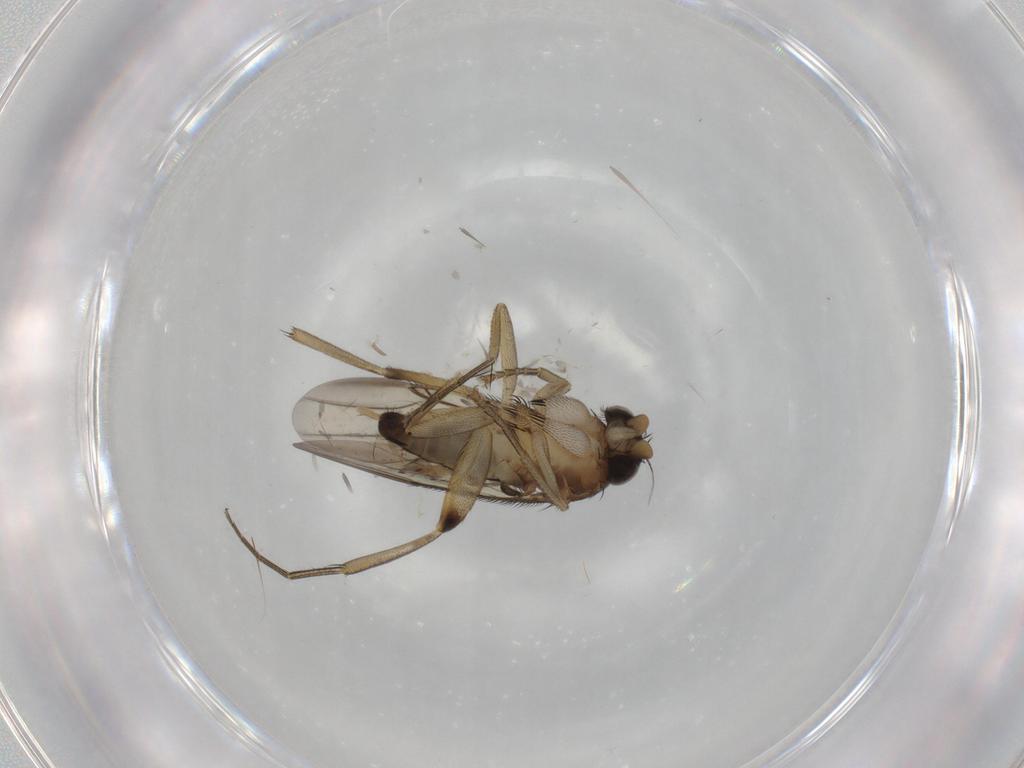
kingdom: Animalia
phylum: Arthropoda
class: Insecta
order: Diptera
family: Phoridae
